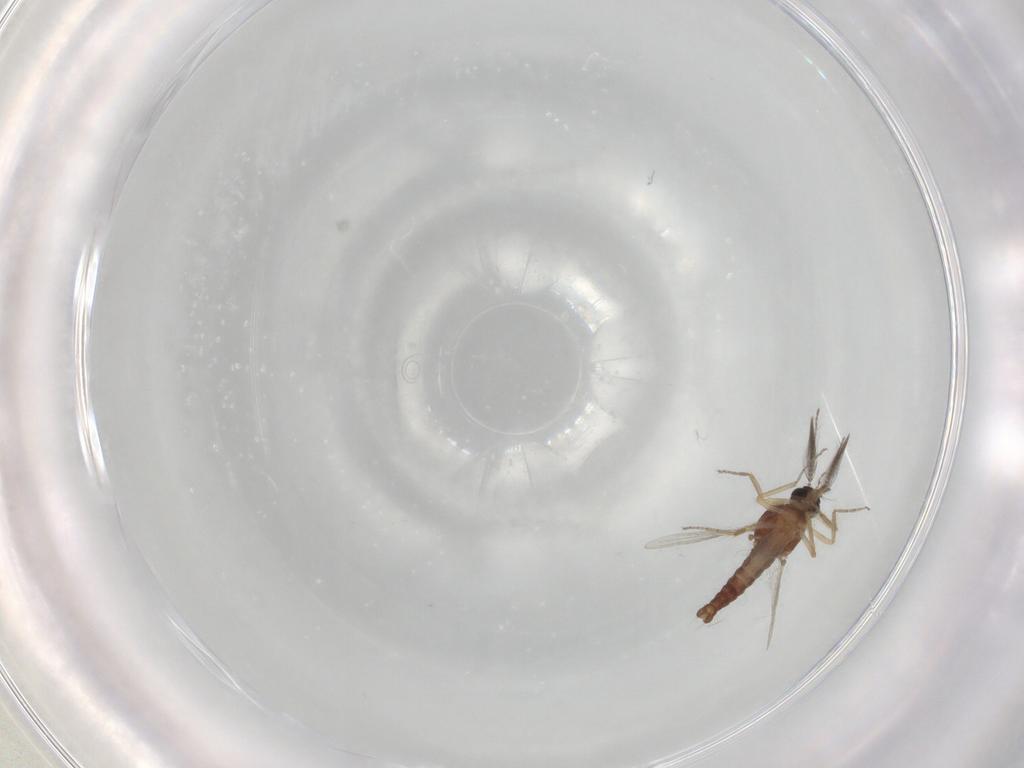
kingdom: Animalia
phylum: Arthropoda
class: Insecta
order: Diptera
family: Ceratopogonidae
